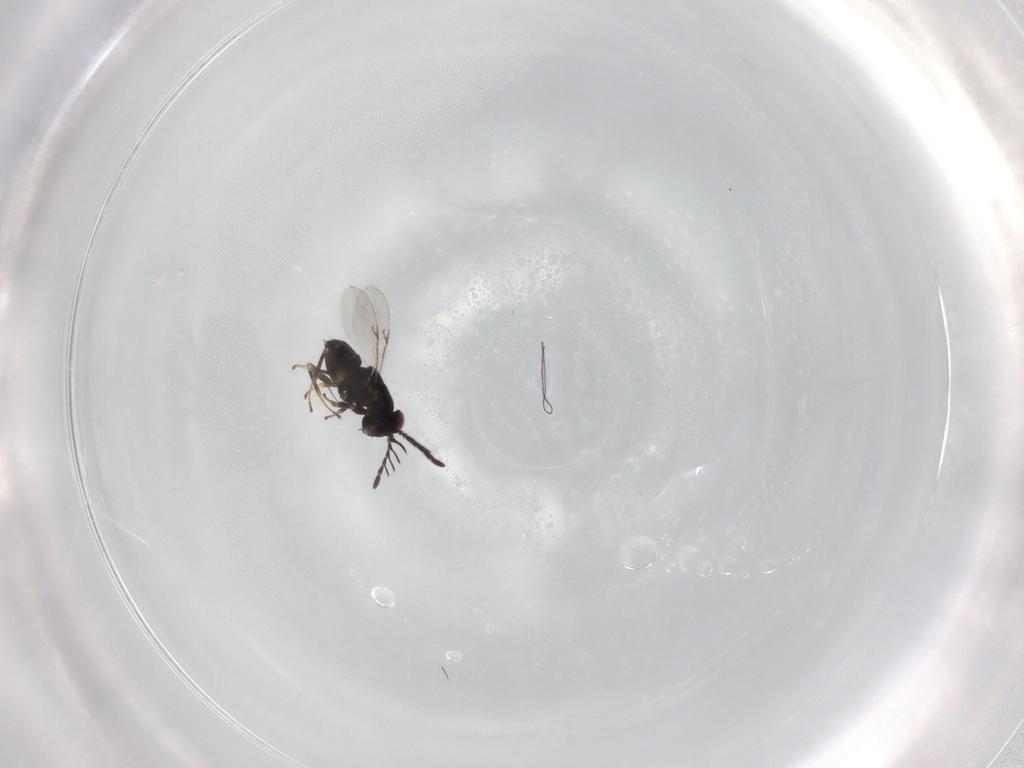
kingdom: Animalia
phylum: Arthropoda
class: Insecta
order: Hymenoptera
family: Encyrtidae
